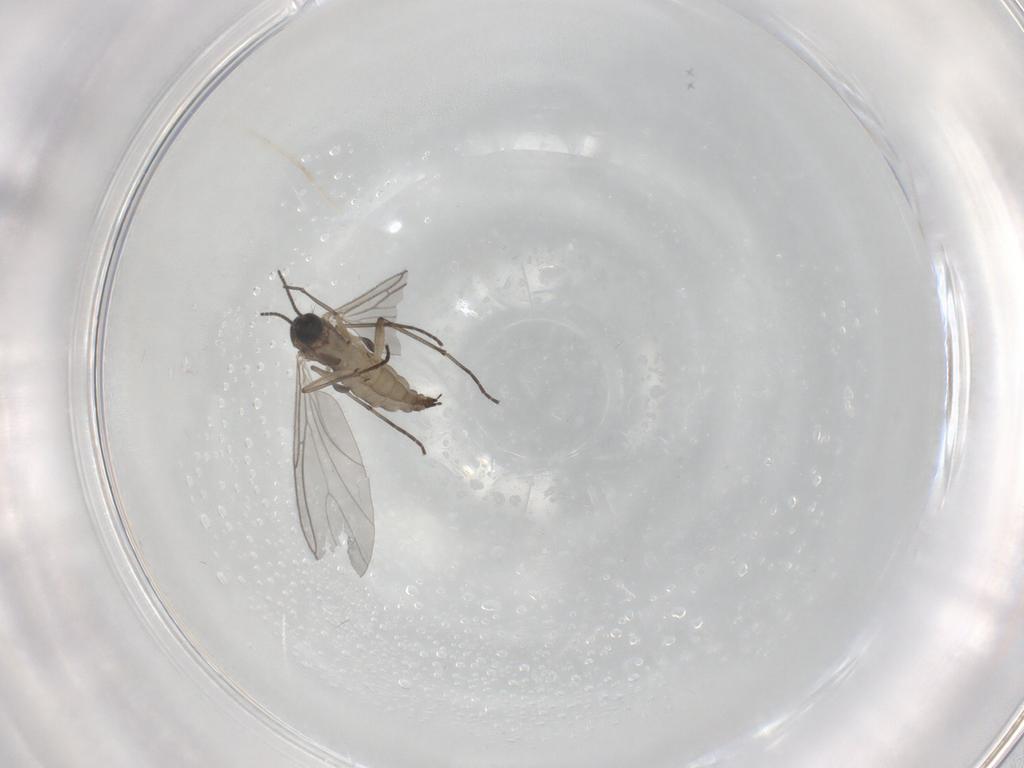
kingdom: Animalia
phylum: Arthropoda
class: Insecta
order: Diptera
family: Sciaridae
